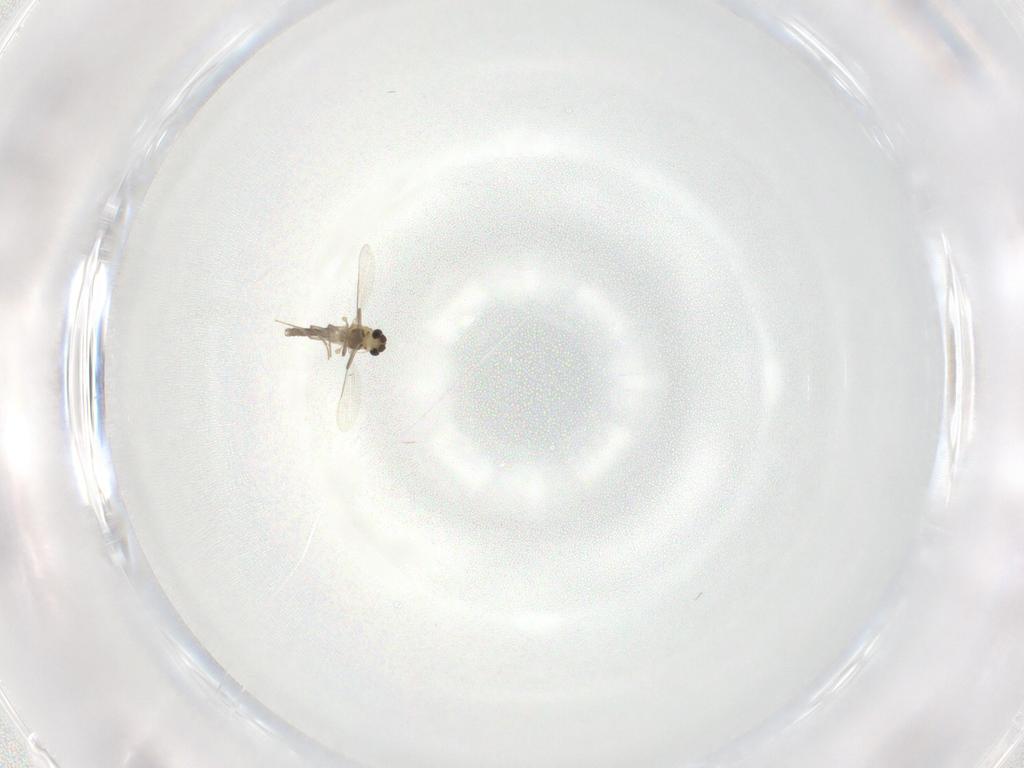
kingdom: Animalia
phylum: Arthropoda
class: Insecta
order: Diptera
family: Chironomidae
